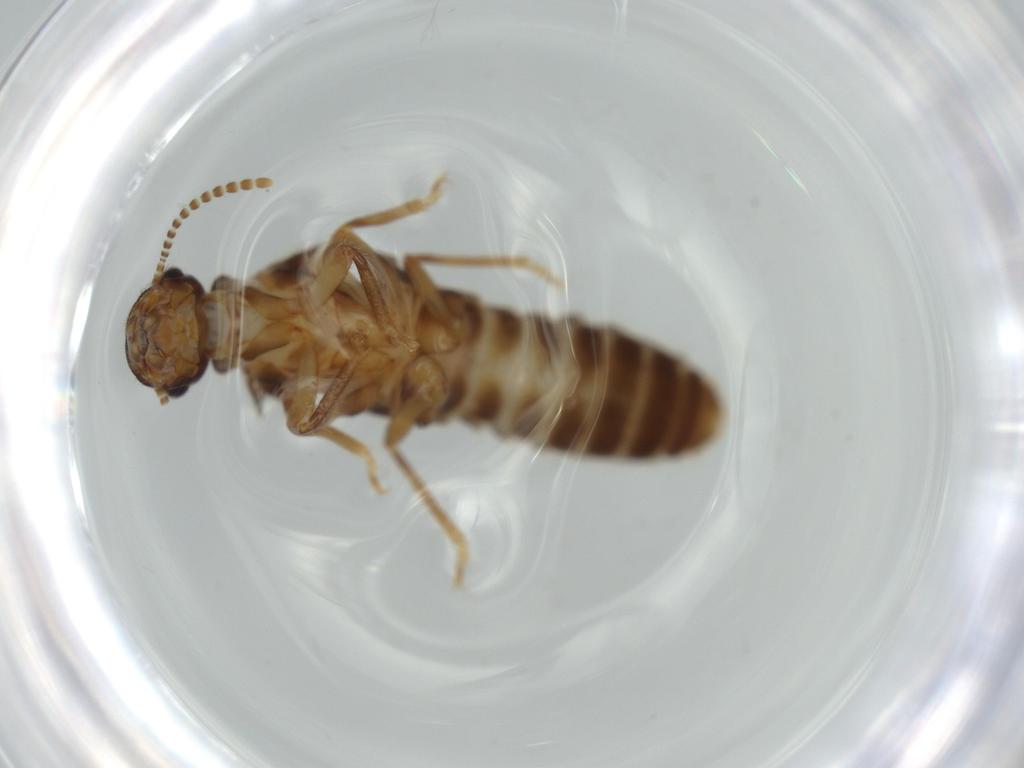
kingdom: Animalia
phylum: Arthropoda
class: Insecta
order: Blattodea
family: Termitidae
